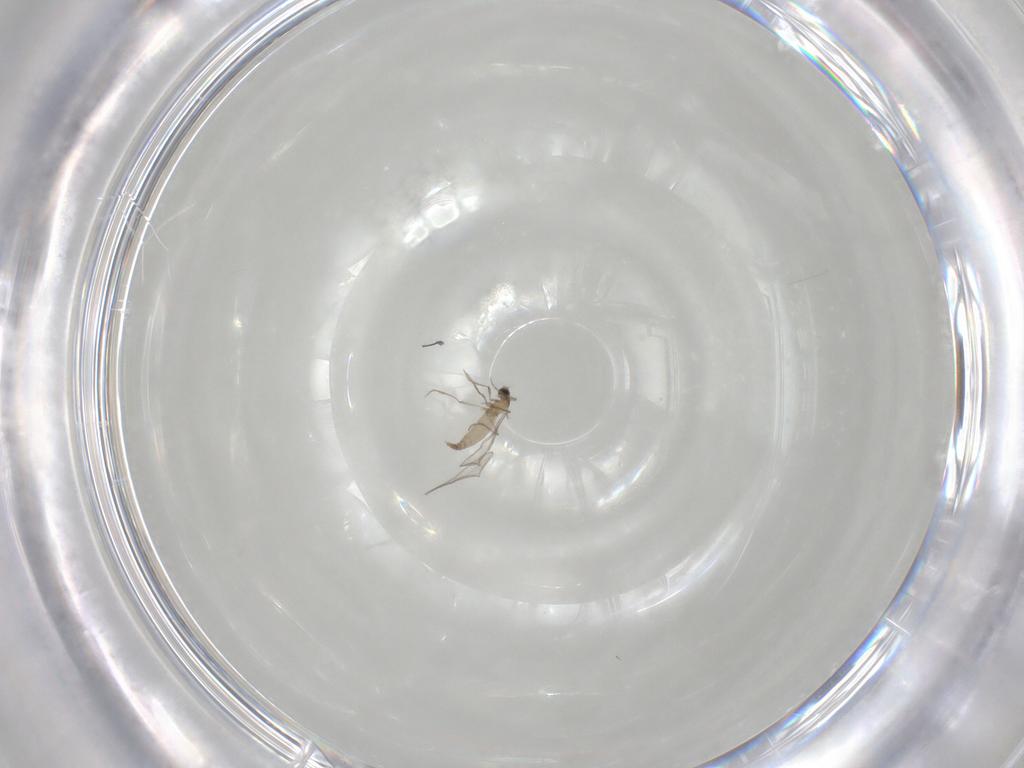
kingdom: Animalia
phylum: Arthropoda
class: Insecta
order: Diptera
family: Cecidomyiidae
